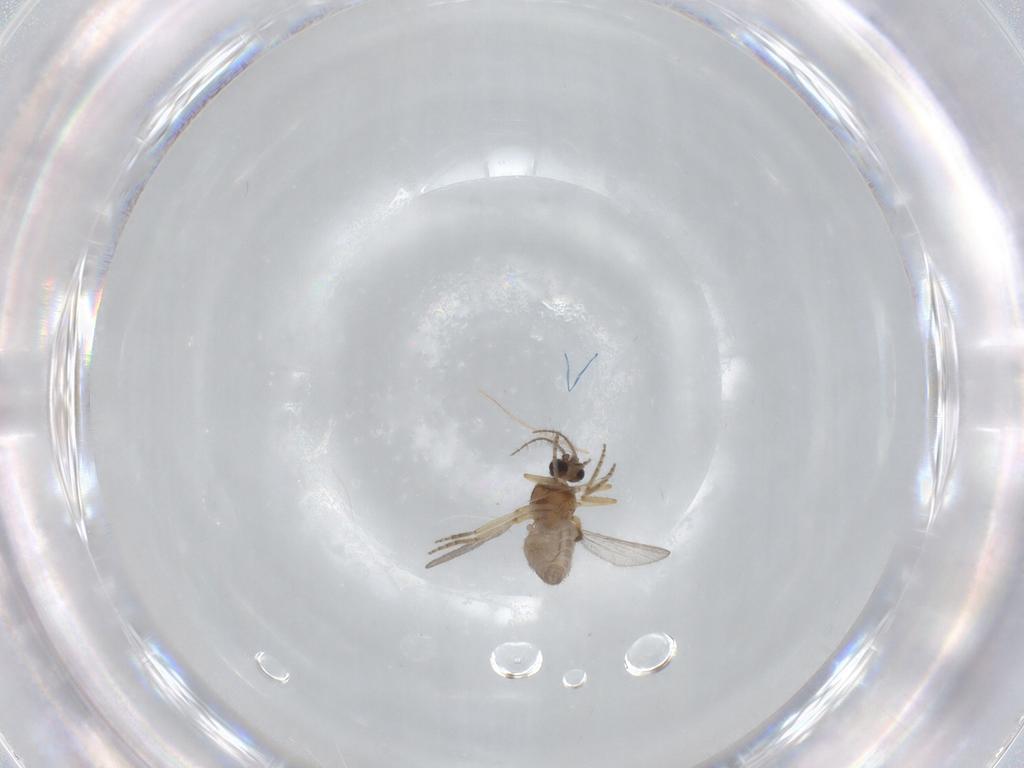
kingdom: Animalia
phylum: Arthropoda
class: Insecta
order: Diptera
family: Ceratopogonidae
